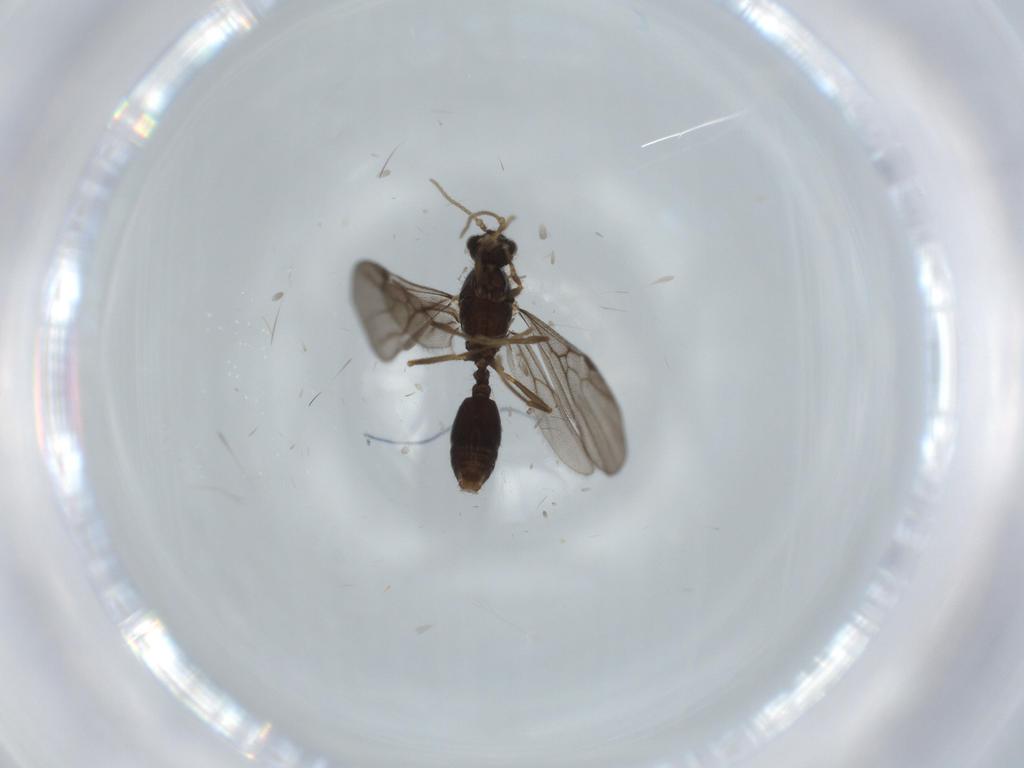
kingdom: Animalia
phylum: Arthropoda
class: Insecta
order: Hymenoptera
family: Formicidae
